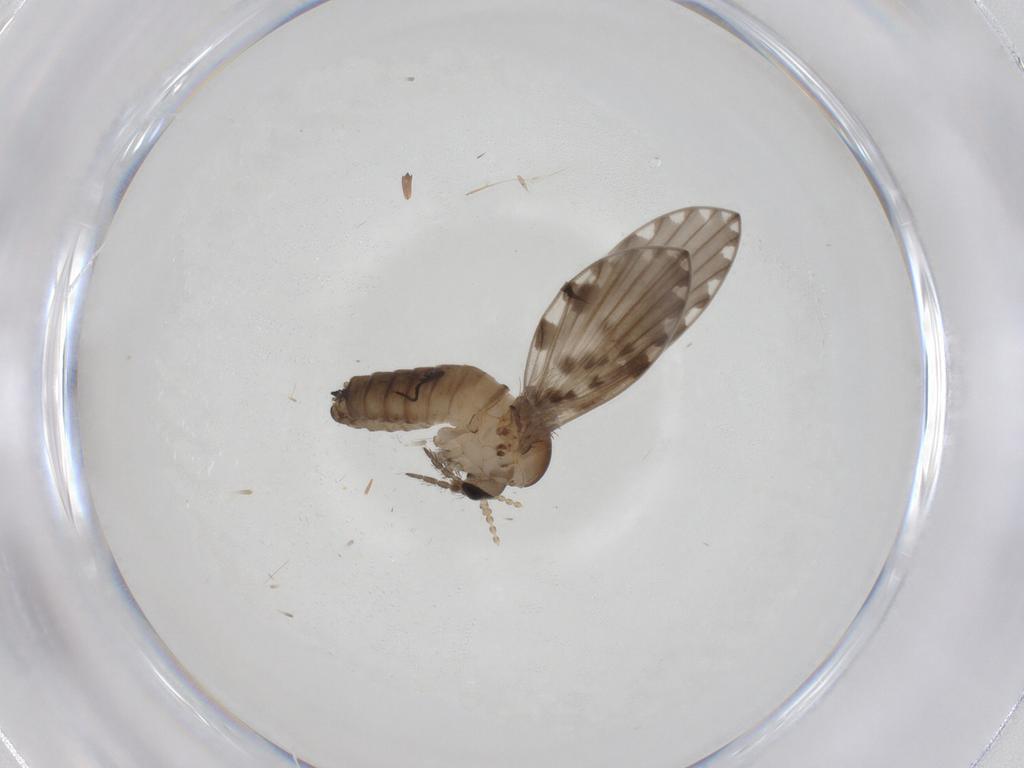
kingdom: Animalia
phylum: Arthropoda
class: Insecta
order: Diptera
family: Psychodidae
